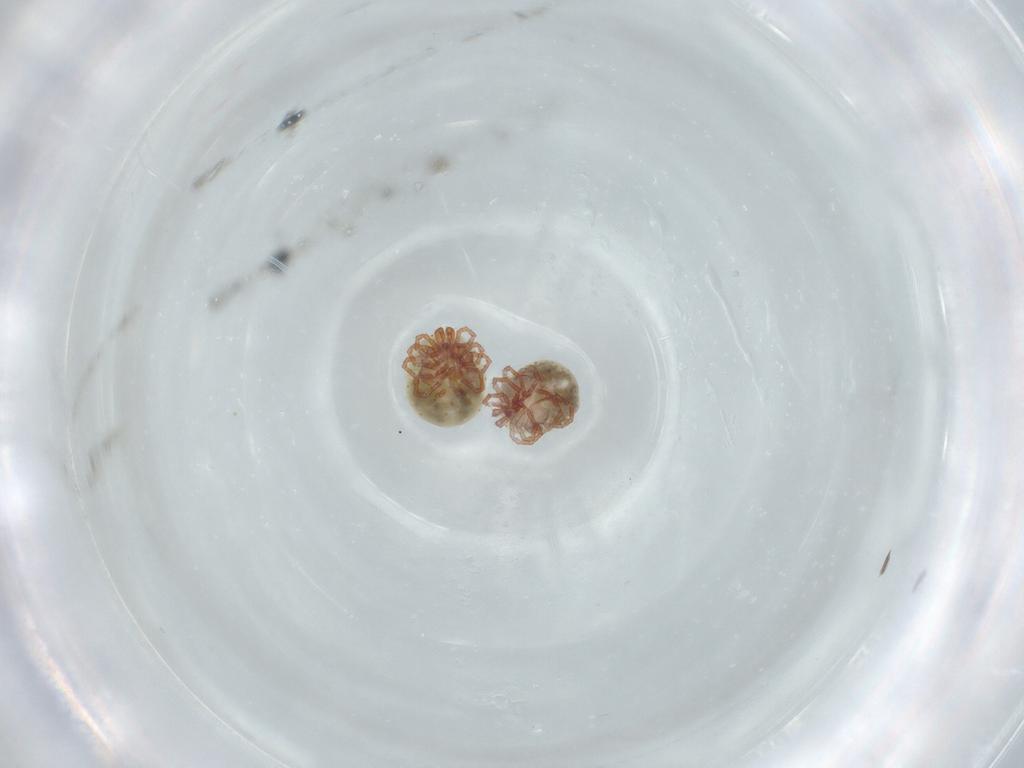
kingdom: Animalia
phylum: Arthropoda
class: Arachnida
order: Trombidiformes
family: Pionidae
